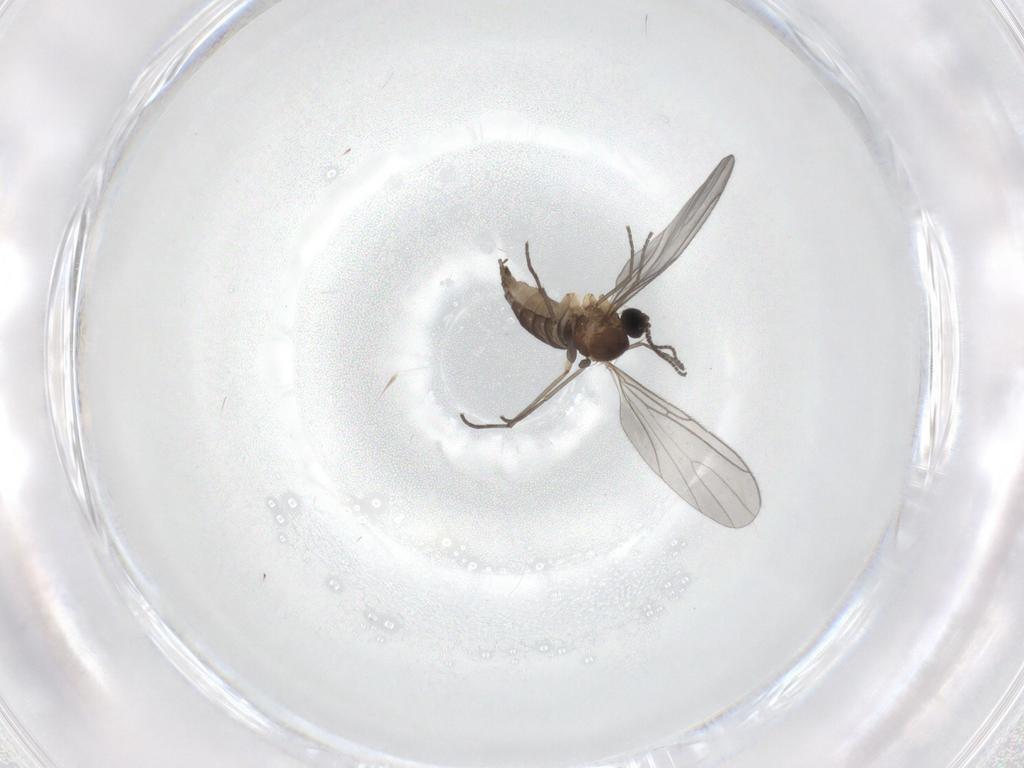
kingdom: Animalia
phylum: Arthropoda
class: Insecta
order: Diptera
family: Sciaridae
